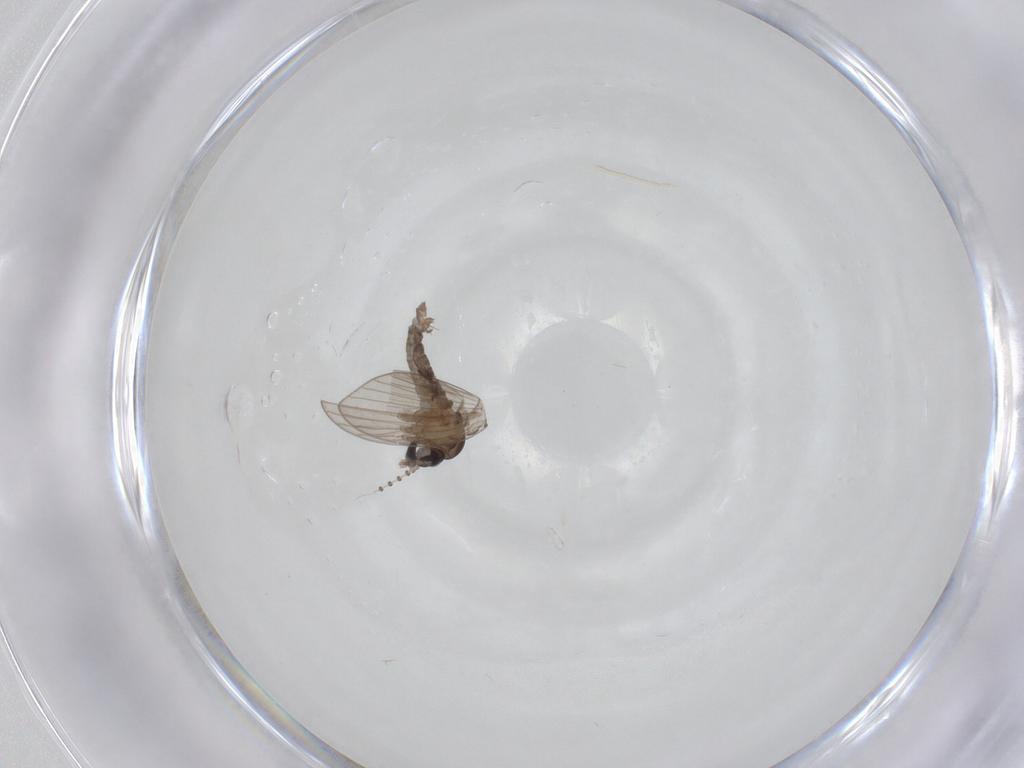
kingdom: Animalia
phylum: Arthropoda
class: Insecta
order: Diptera
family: Psychodidae
